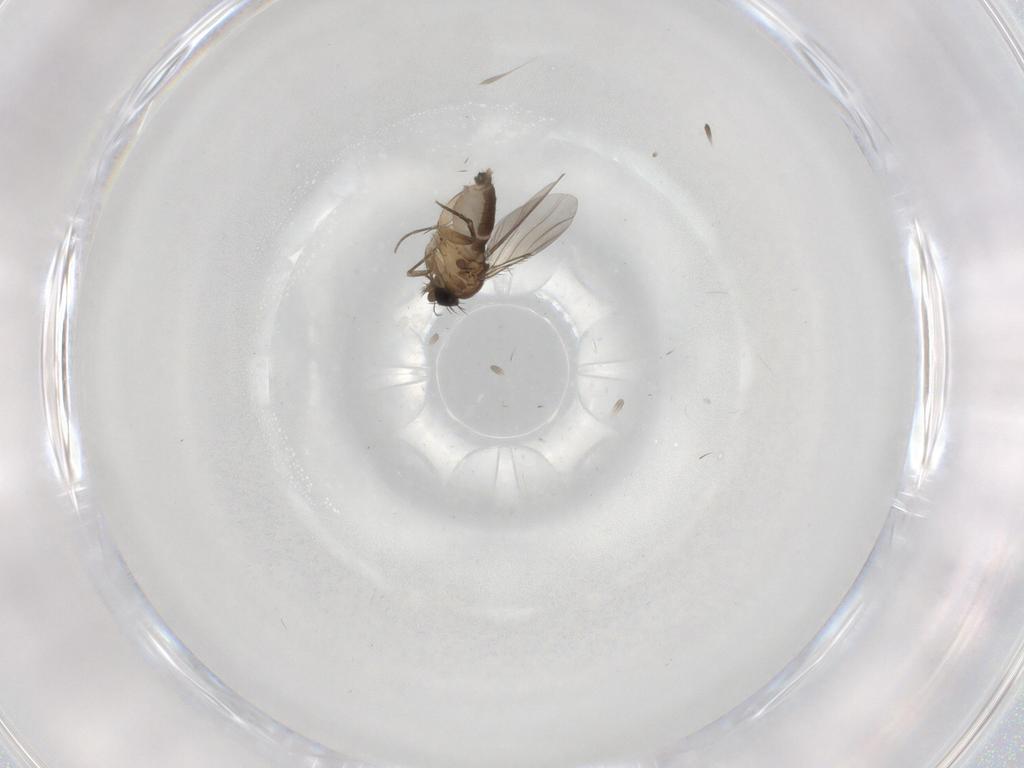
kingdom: Animalia
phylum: Arthropoda
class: Insecta
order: Diptera
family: Phoridae
